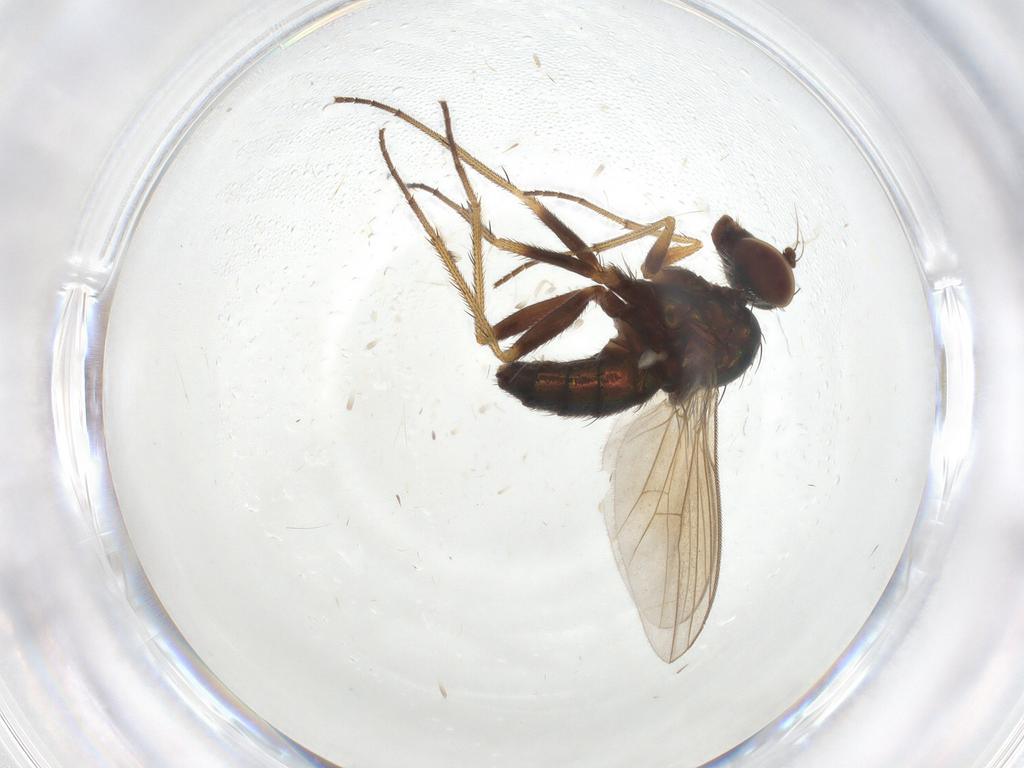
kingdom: Animalia
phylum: Arthropoda
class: Insecta
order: Diptera
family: Dolichopodidae
